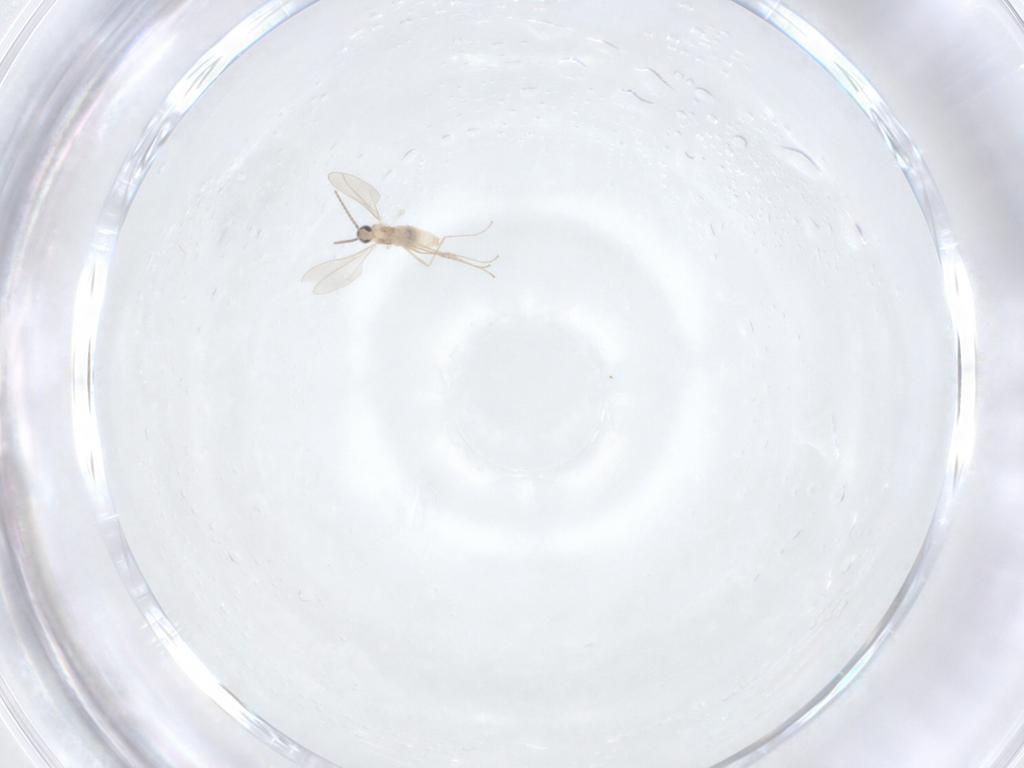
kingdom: Animalia
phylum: Arthropoda
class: Insecta
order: Diptera
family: Cecidomyiidae
